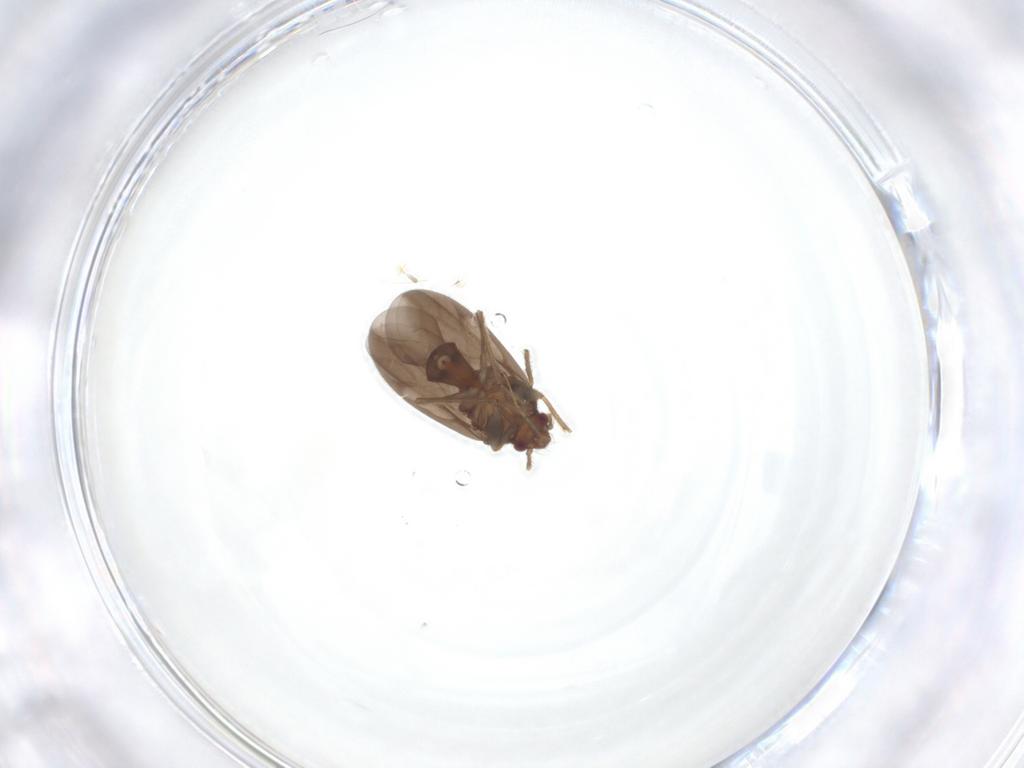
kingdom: Animalia
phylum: Arthropoda
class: Insecta
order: Hemiptera
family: Ceratocombidae
